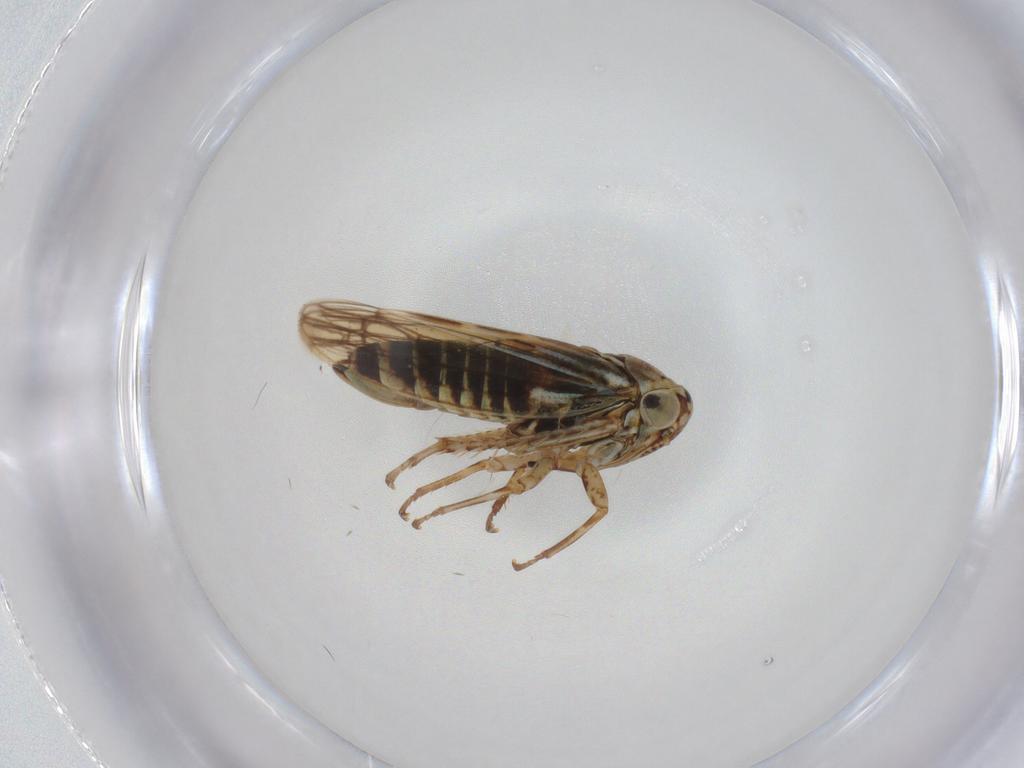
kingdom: Animalia
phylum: Arthropoda
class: Insecta
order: Hemiptera
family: Cicadellidae
